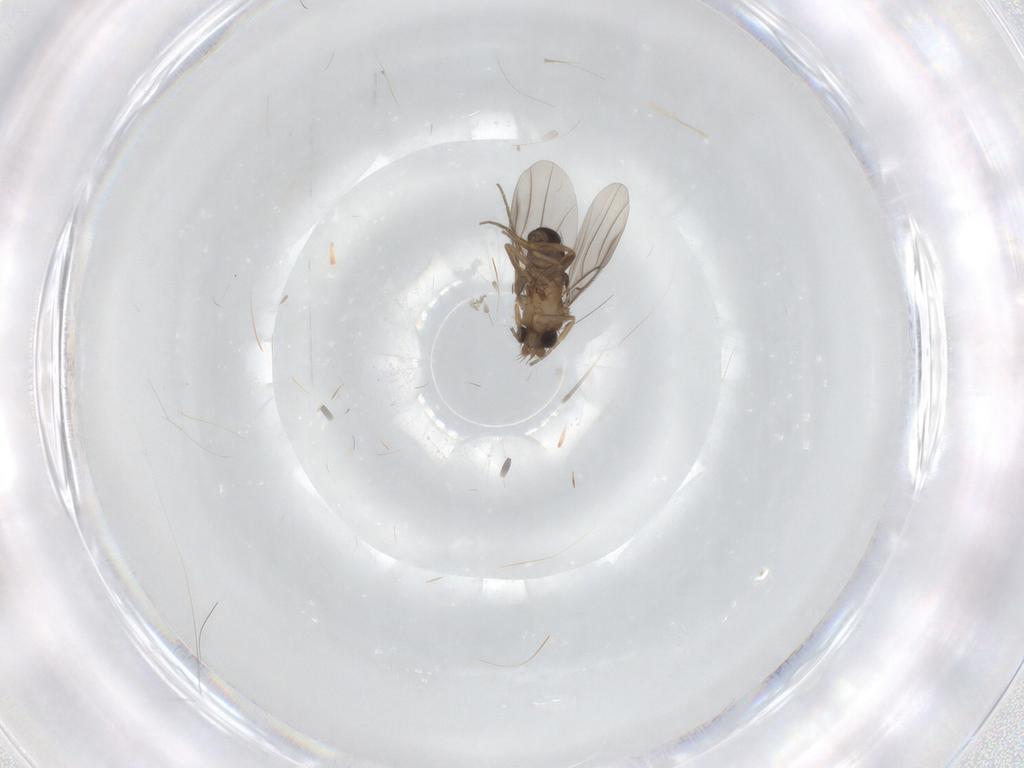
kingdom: Animalia
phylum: Arthropoda
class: Insecta
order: Diptera
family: Cecidomyiidae
